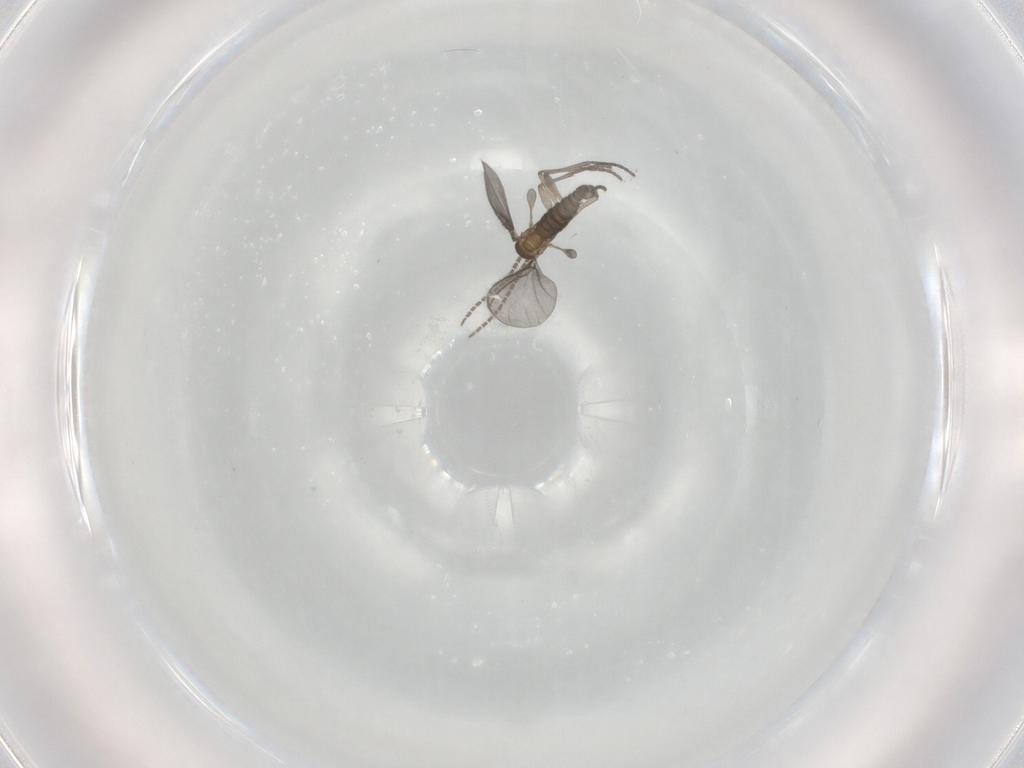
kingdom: Animalia
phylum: Arthropoda
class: Insecta
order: Diptera
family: Sciaridae
